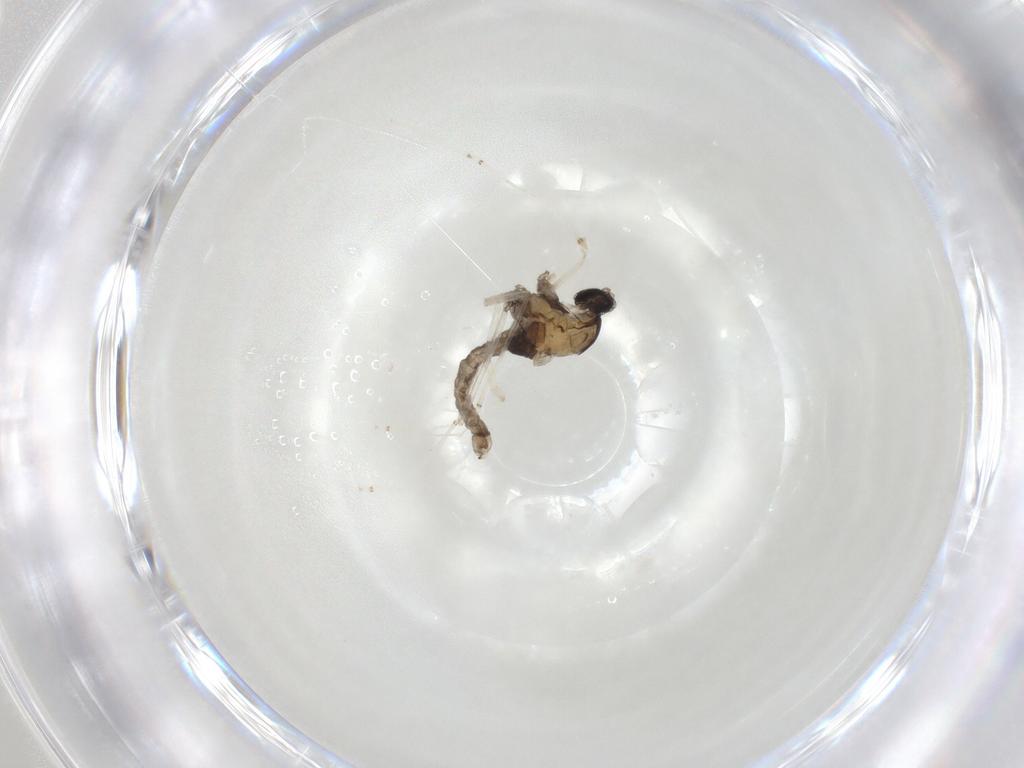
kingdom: Animalia
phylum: Arthropoda
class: Insecta
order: Diptera
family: Cecidomyiidae
